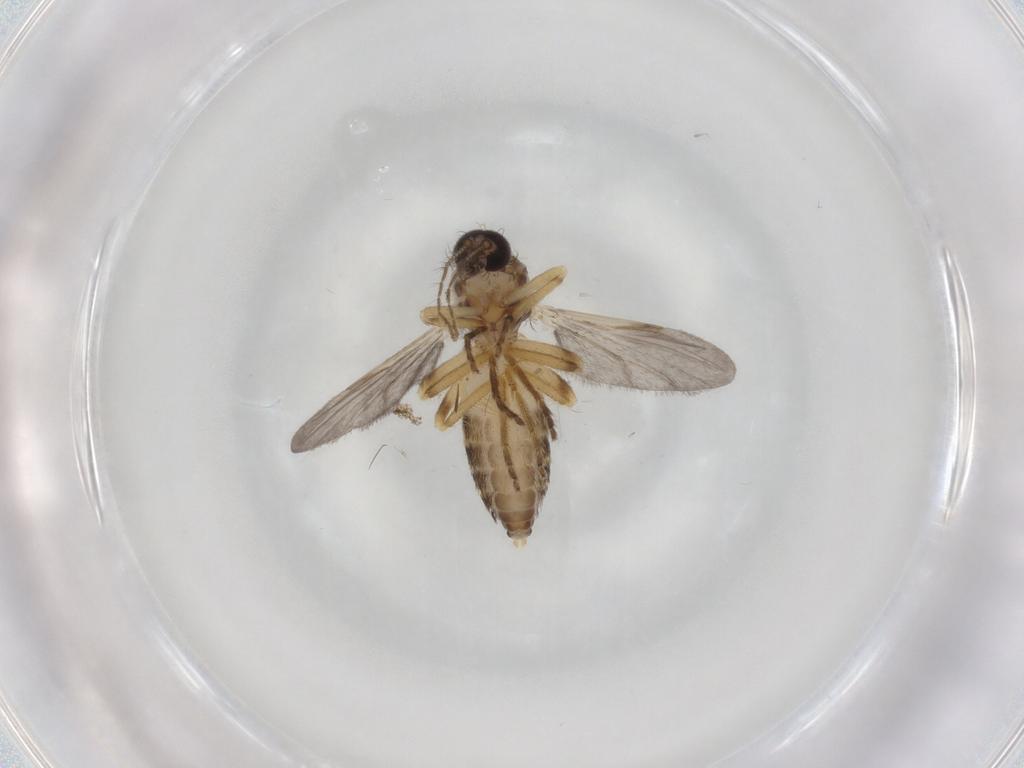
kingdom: Animalia
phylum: Arthropoda
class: Insecta
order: Diptera
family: Ceratopogonidae
